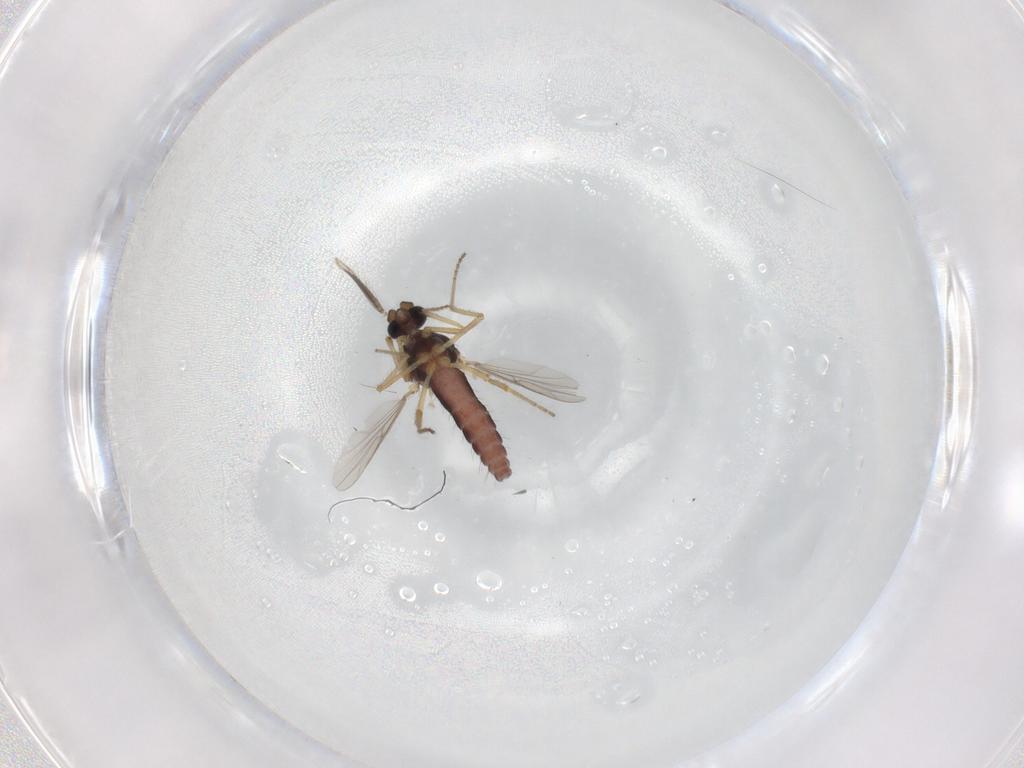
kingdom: Animalia
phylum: Arthropoda
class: Insecta
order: Diptera
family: Ceratopogonidae
